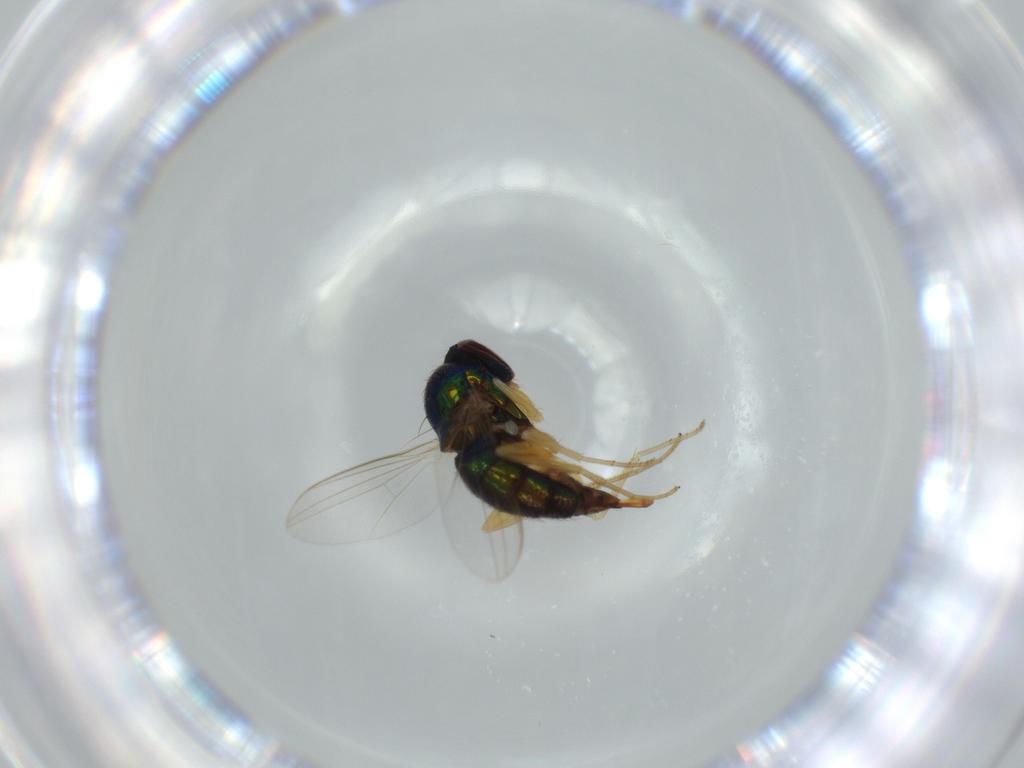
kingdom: Animalia
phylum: Arthropoda
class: Insecta
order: Diptera
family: Dolichopodidae
